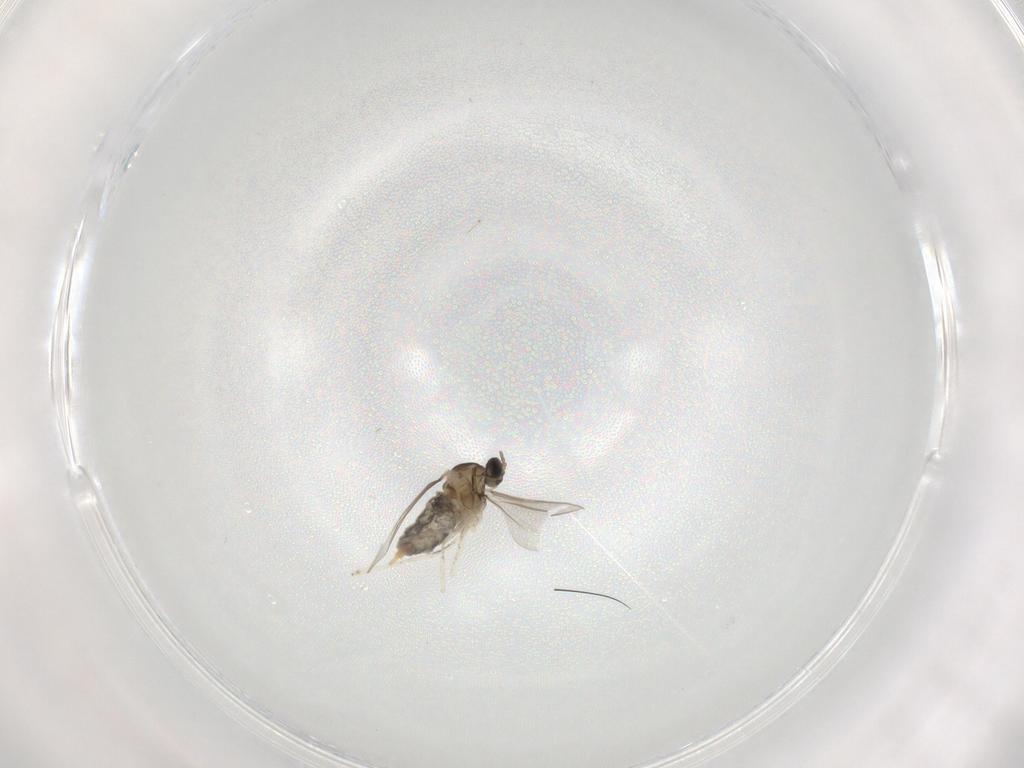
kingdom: Animalia
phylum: Arthropoda
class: Insecta
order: Diptera
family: Cecidomyiidae
